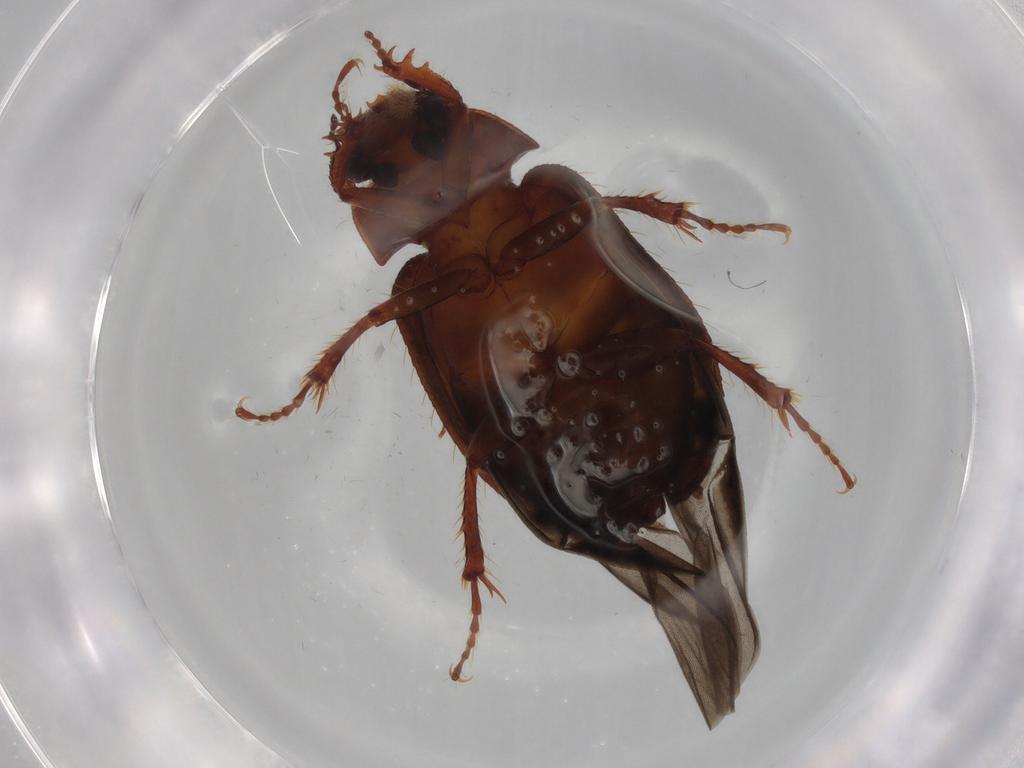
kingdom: Animalia
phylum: Arthropoda
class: Insecta
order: Coleoptera
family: Hybosoridae
